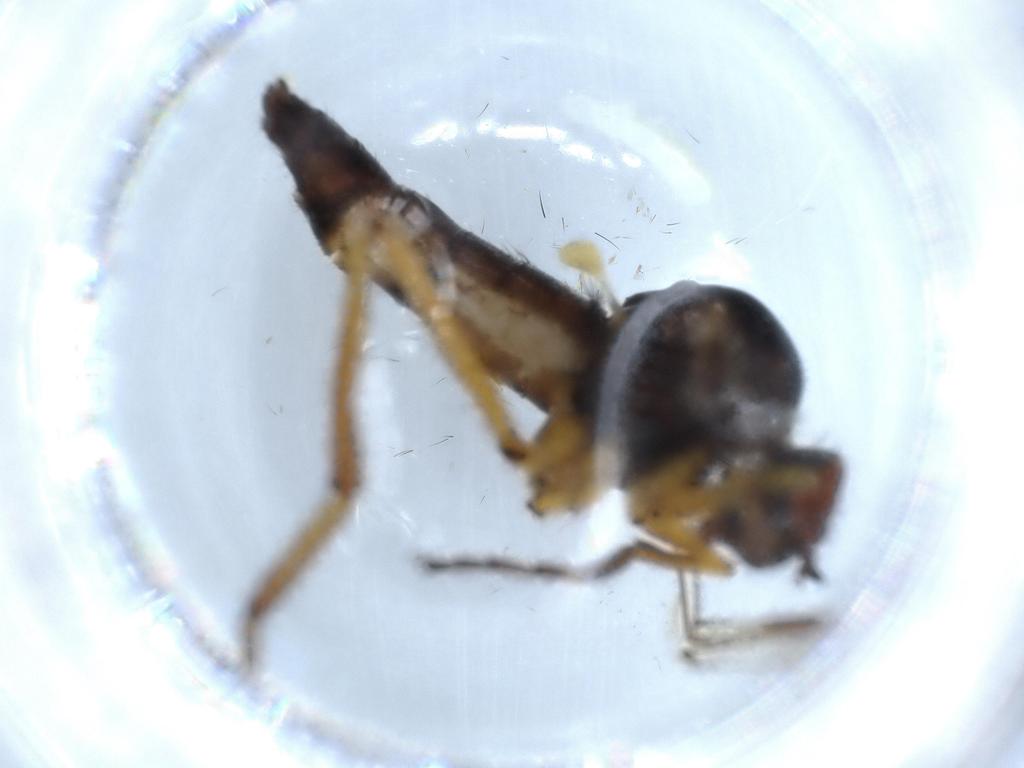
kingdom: Animalia
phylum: Arthropoda
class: Insecta
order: Diptera
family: Chironomidae
